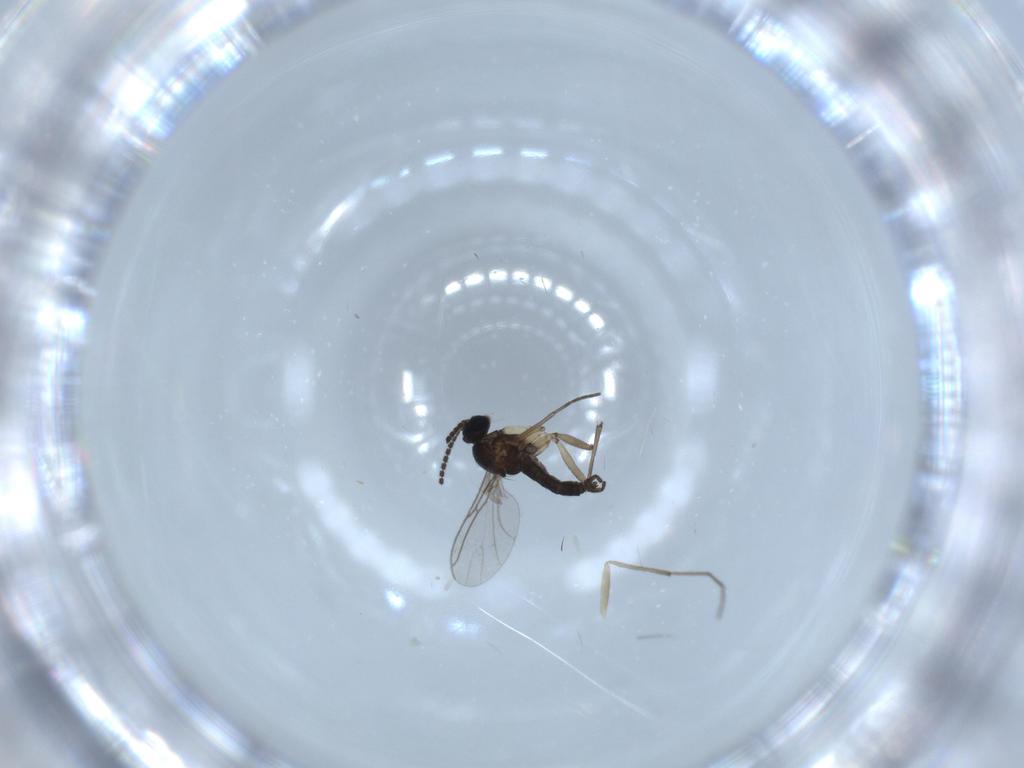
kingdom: Animalia
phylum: Arthropoda
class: Insecta
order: Diptera
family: Sciaridae
